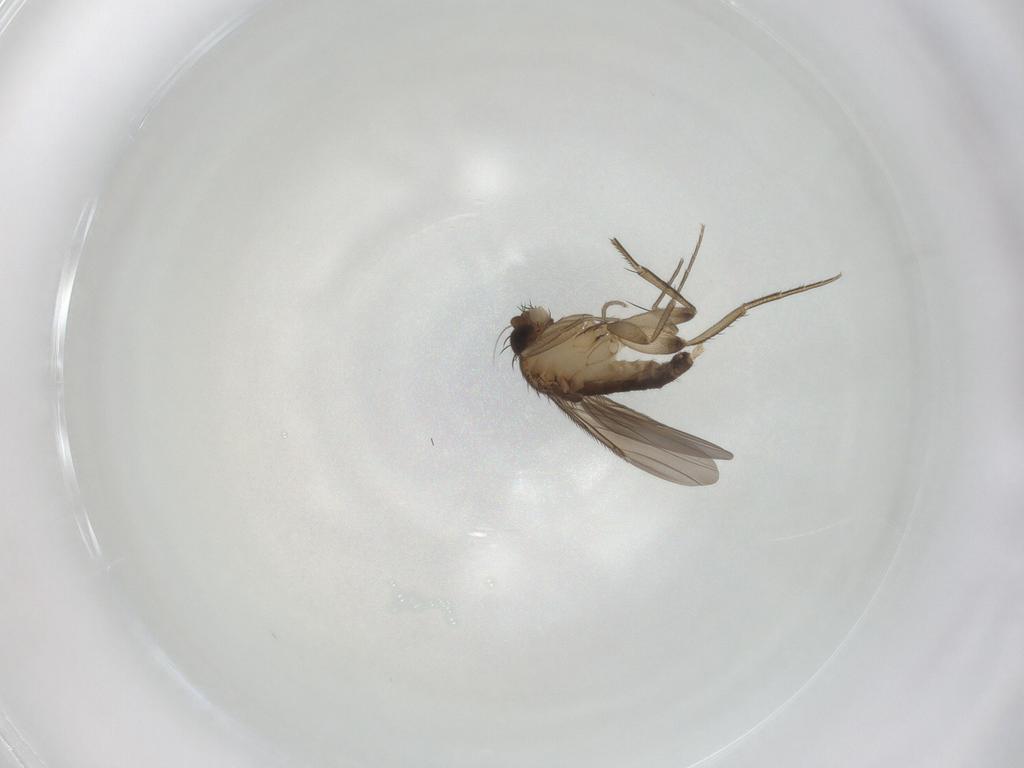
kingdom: Animalia
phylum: Arthropoda
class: Insecta
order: Diptera
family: Phoridae
